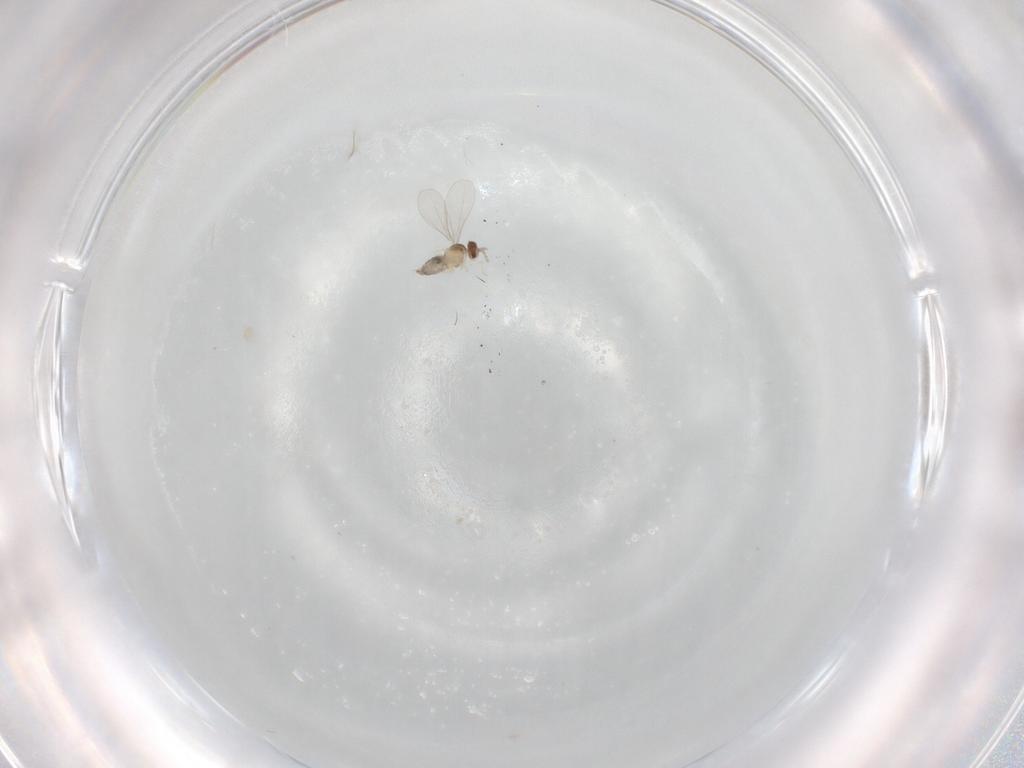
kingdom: Animalia
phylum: Arthropoda
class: Insecta
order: Diptera
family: Cecidomyiidae
